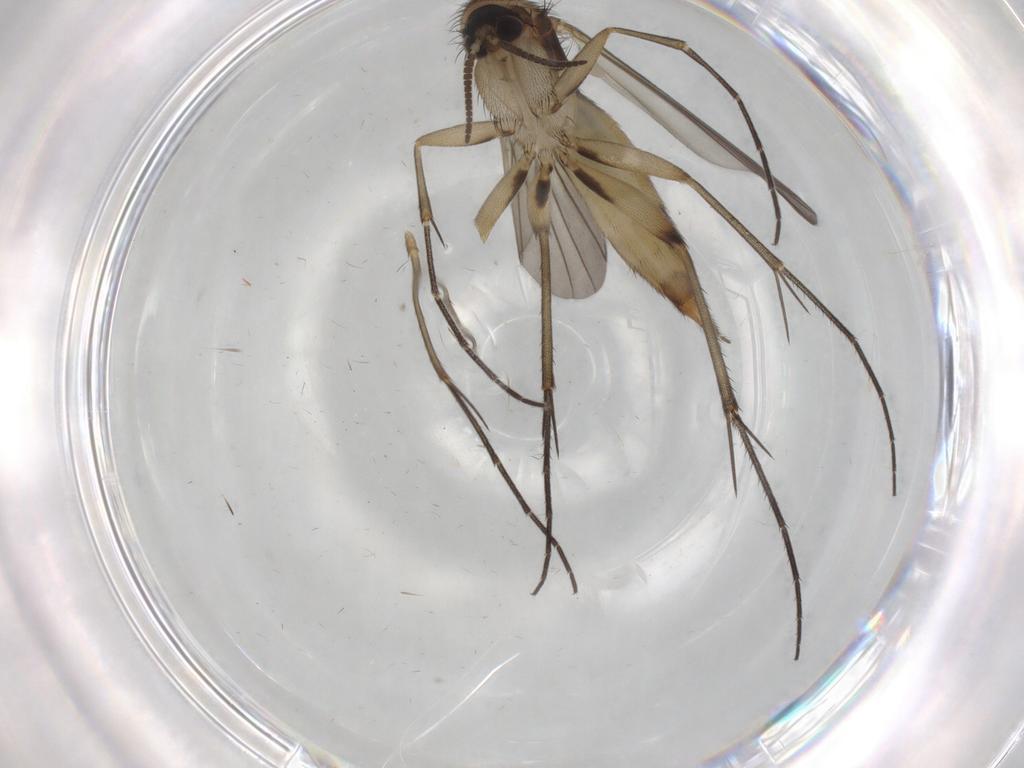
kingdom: Animalia
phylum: Arthropoda
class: Insecta
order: Diptera
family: Mycetophilidae
